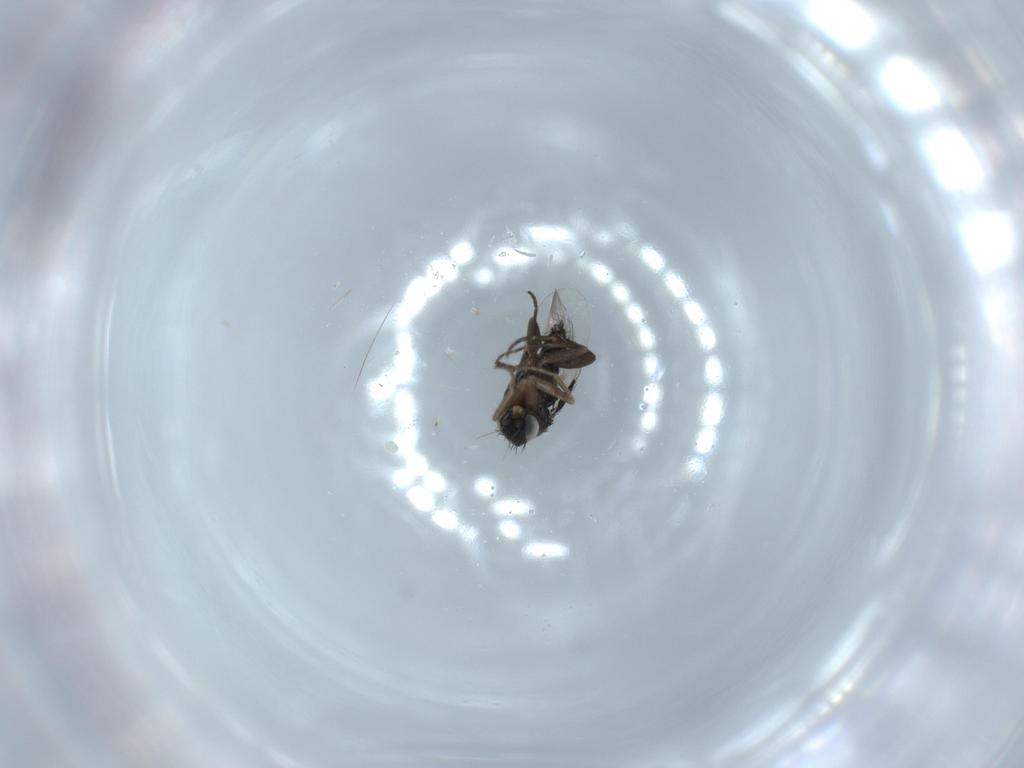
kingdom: Animalia
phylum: Arthropoda
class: Insecta
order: Diptera
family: Phoridae
